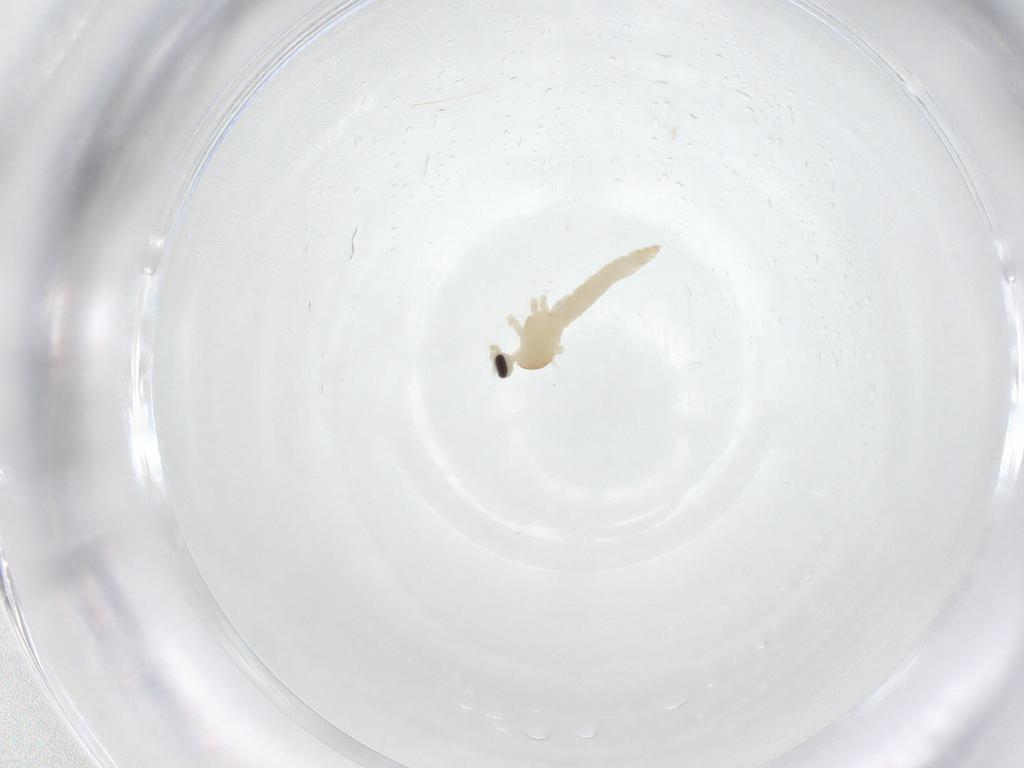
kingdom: Animalia
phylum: Arthropoda
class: Insecta
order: Diptera
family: Cecidomyiidae
